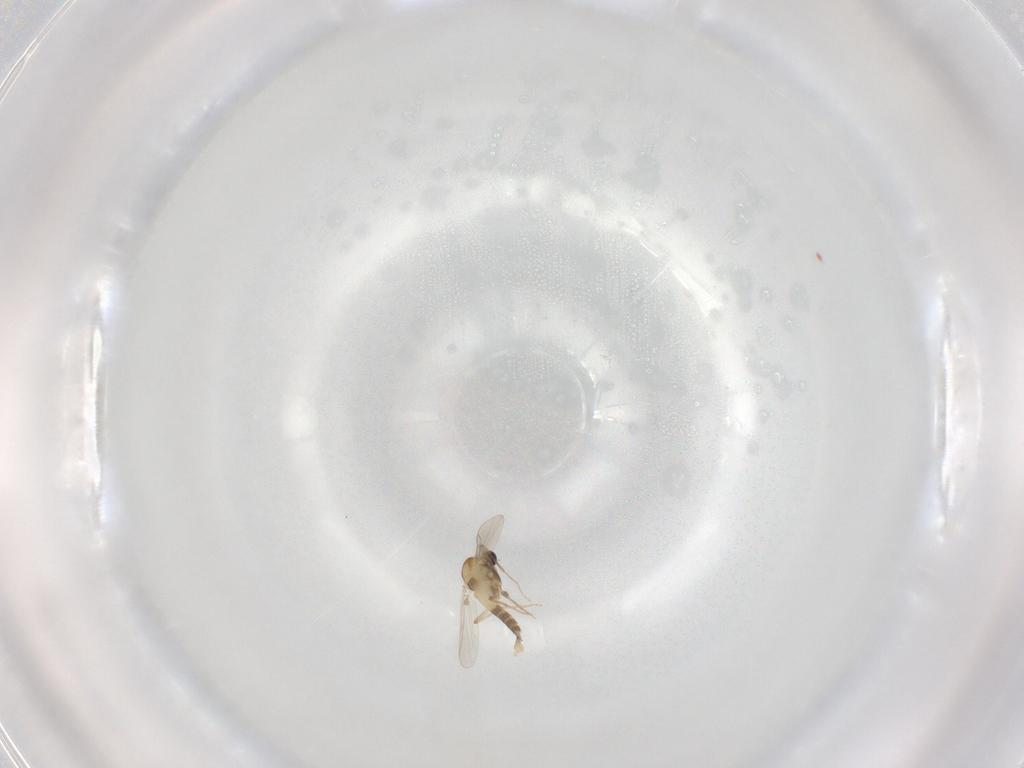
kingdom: Animalia
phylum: Arthropoda
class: Insecta
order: Diptera
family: Chironomidae
